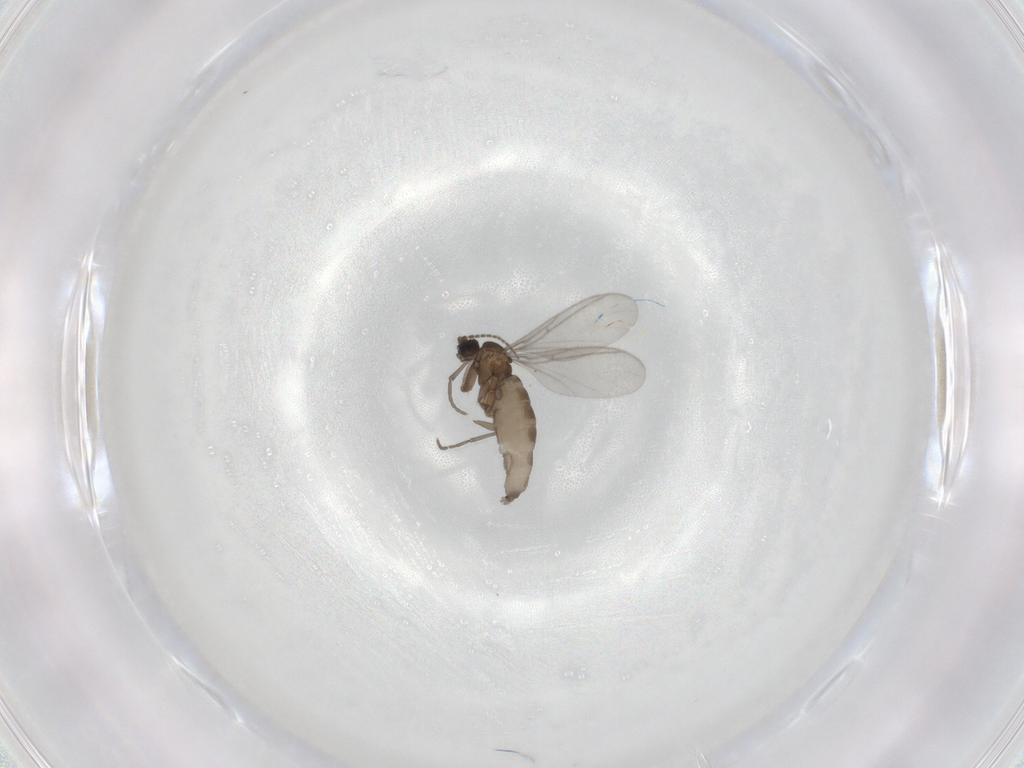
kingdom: Animalia
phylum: Arthropoda
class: Insecta
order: Diptera
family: Sciaridae
